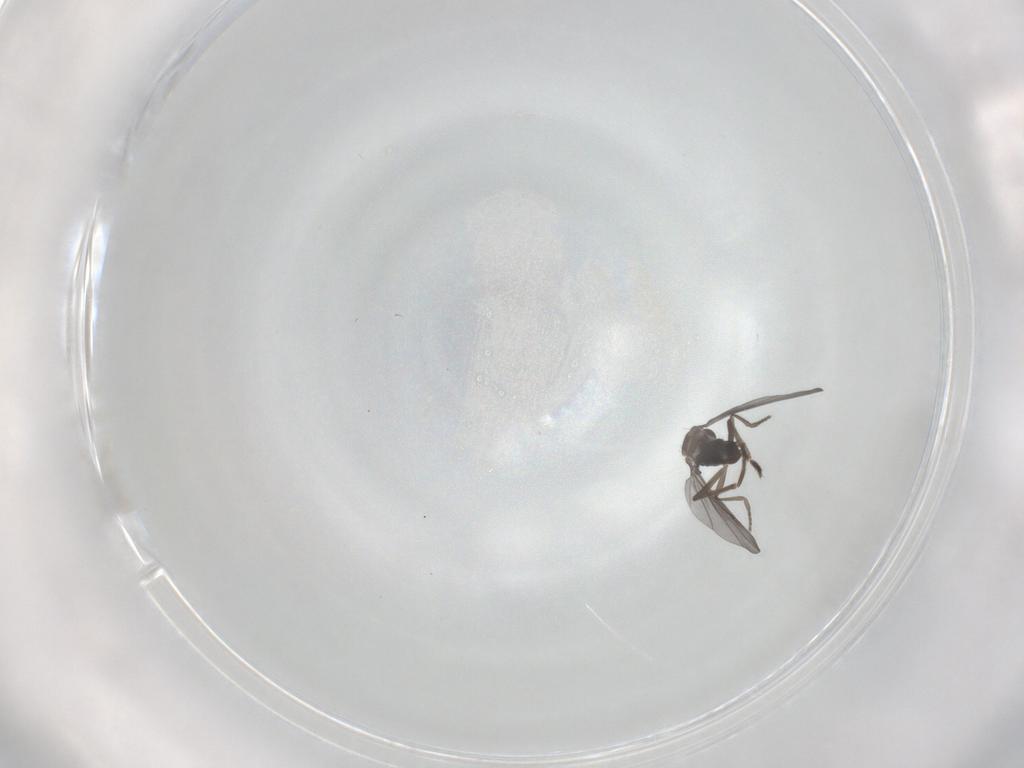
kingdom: Animalia
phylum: Arthropoda
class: Insecta
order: Diptera
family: Phoridae
